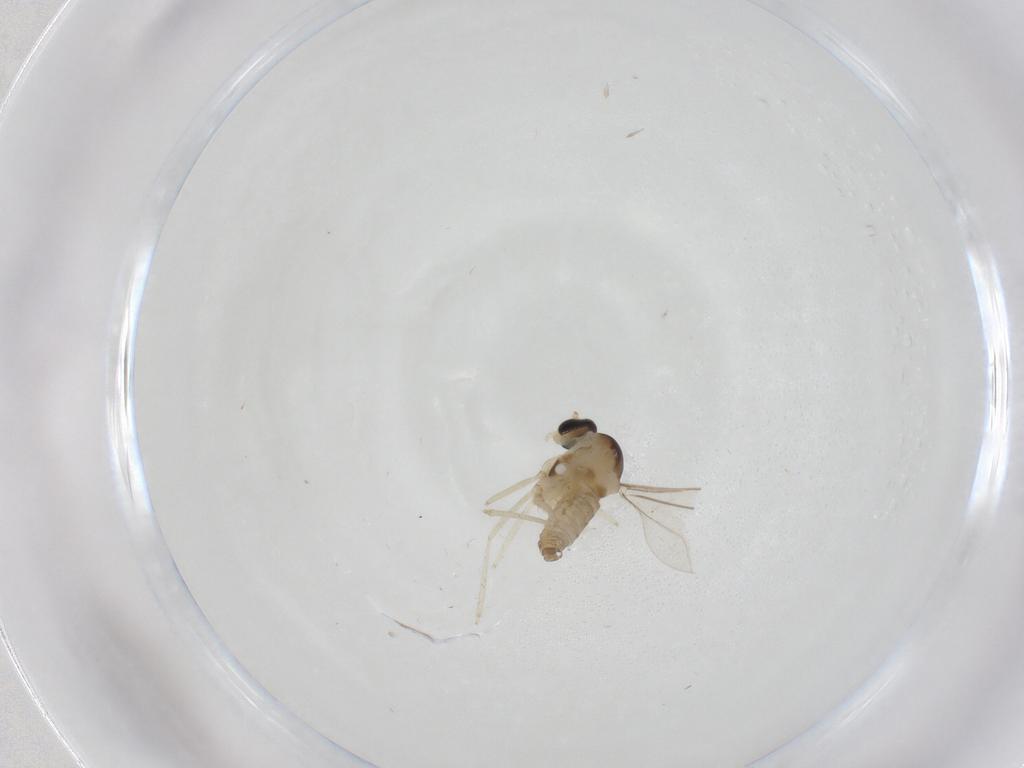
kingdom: Animalia
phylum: Arthropoda
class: Insecta
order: Diptera
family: Cecidomyiidae
